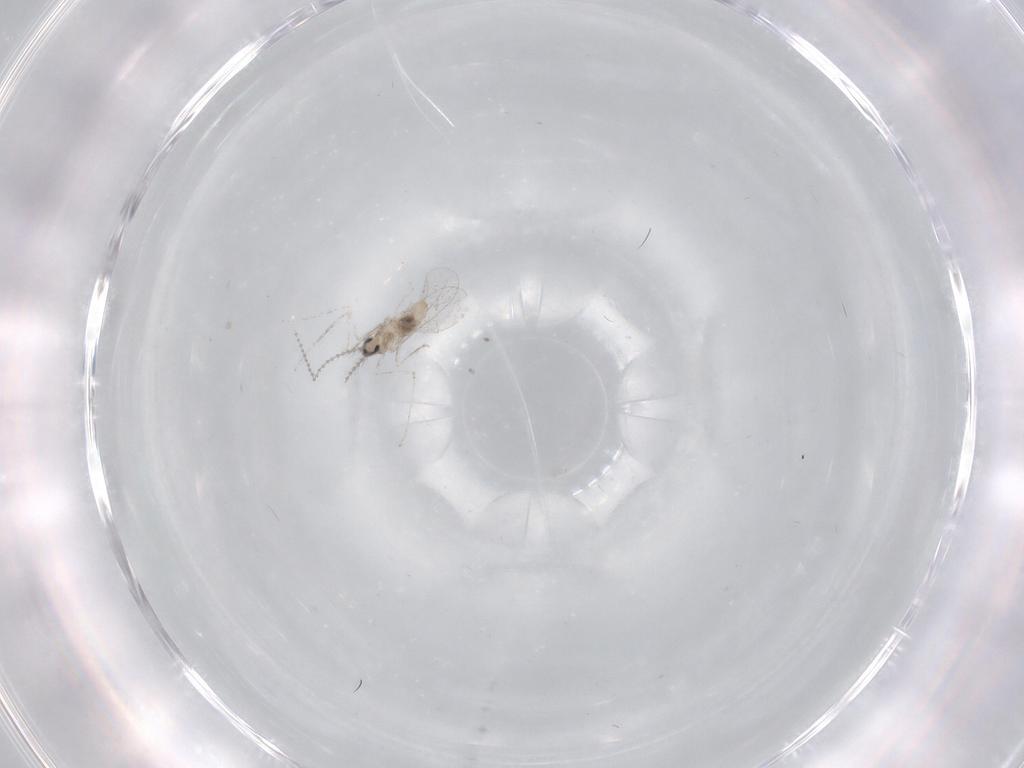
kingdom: Animalia
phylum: Arthropoda
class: Insecta
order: Diptera
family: Cecidomyiidae
